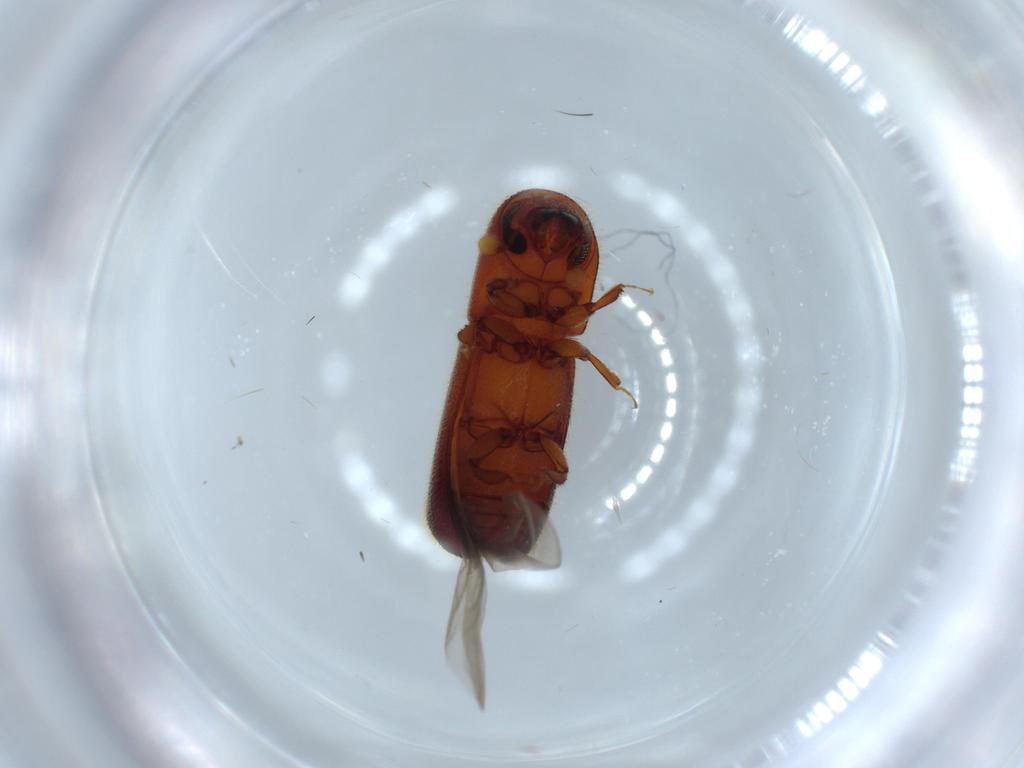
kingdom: Animalia
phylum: Arthropoda
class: Insecta
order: Coleoptera
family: Curculionidae
